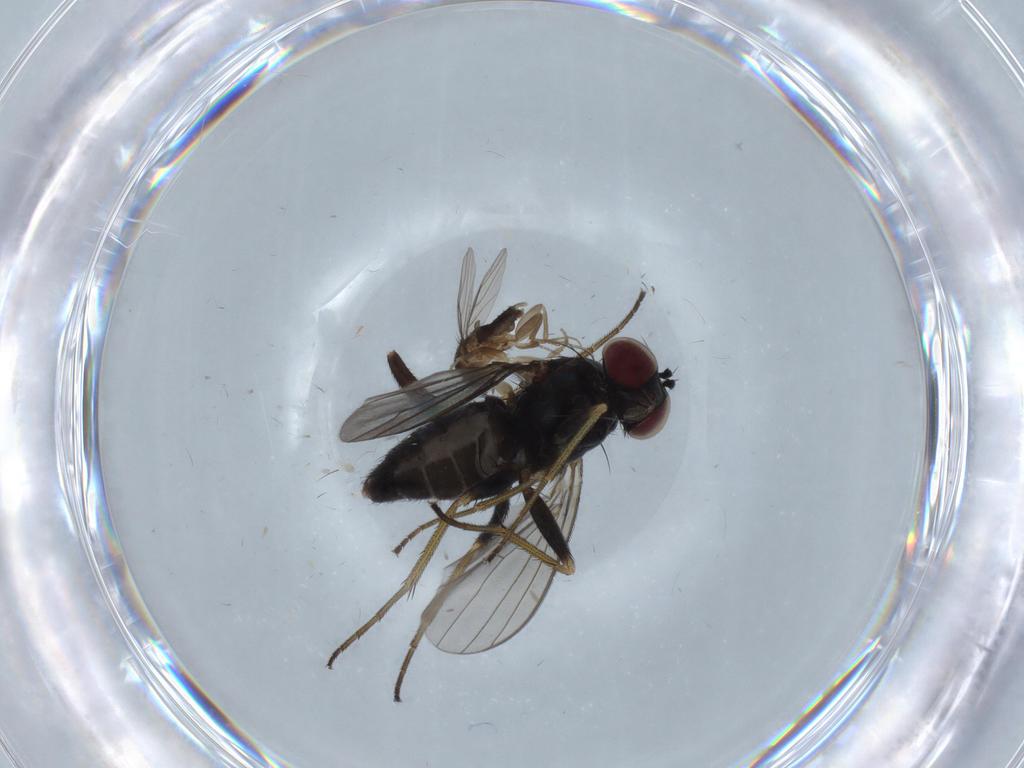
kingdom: Animalia
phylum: Arthropoda
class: Insecta
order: Diptera
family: Dolichopodidae
